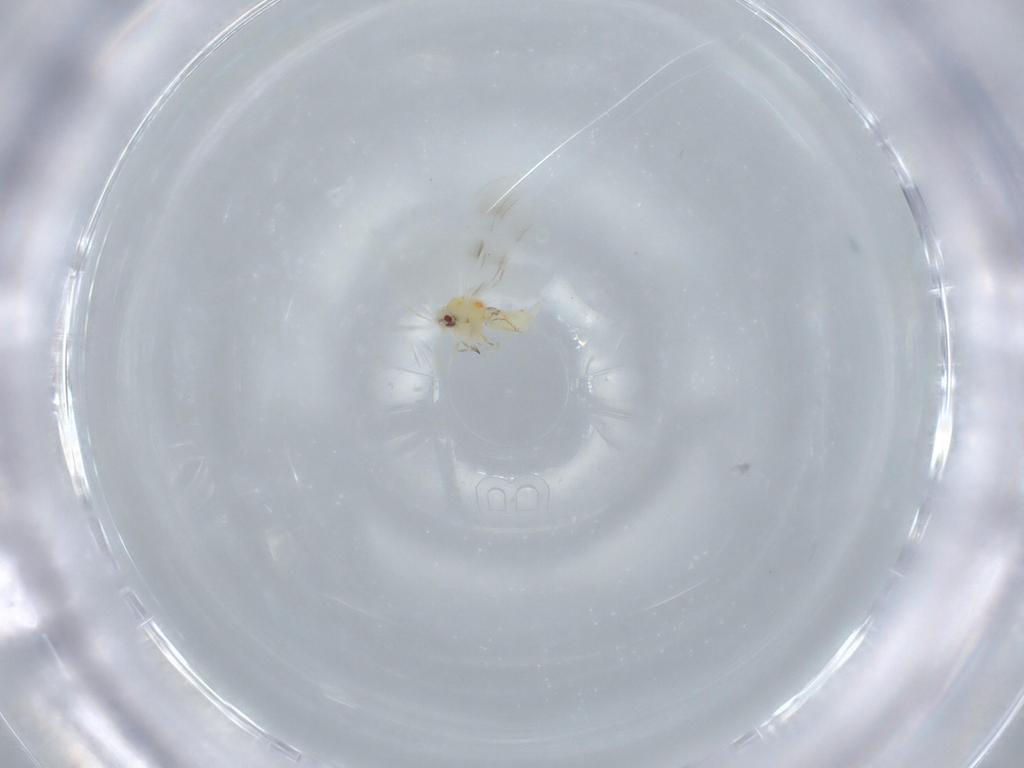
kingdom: Animalia
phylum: Arthropoda
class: Insecta
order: Hemiptera
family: Aleyrodidae
